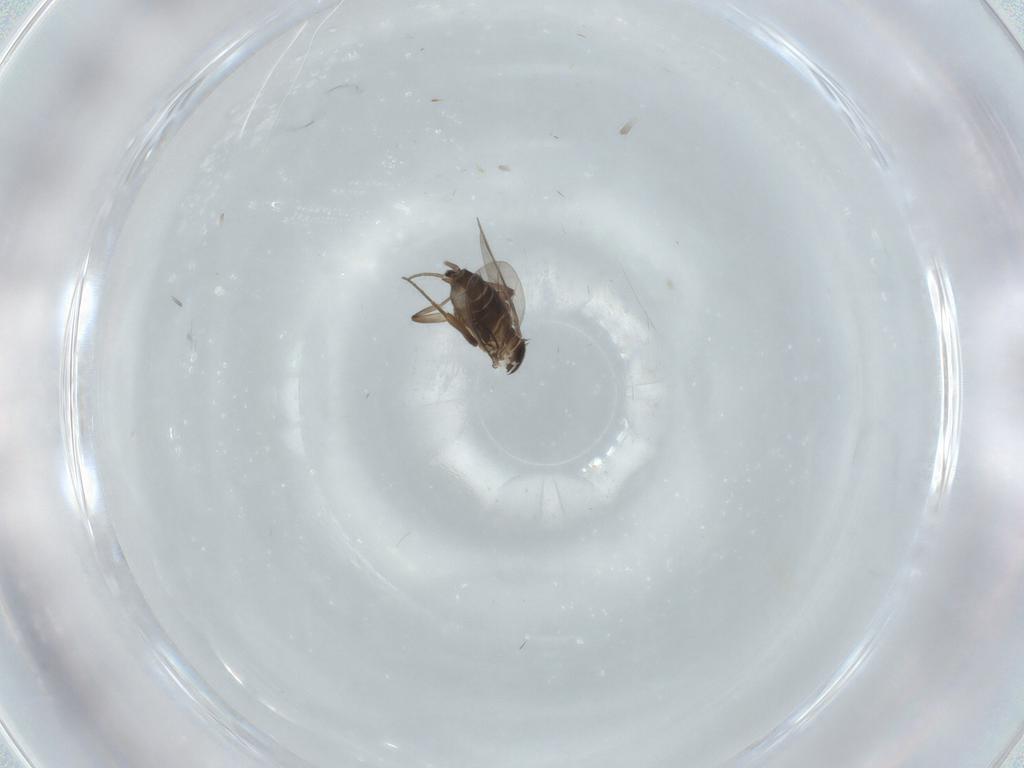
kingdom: Animalia
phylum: Arthropoda
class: Insecta
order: Diptera
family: Phoridae
